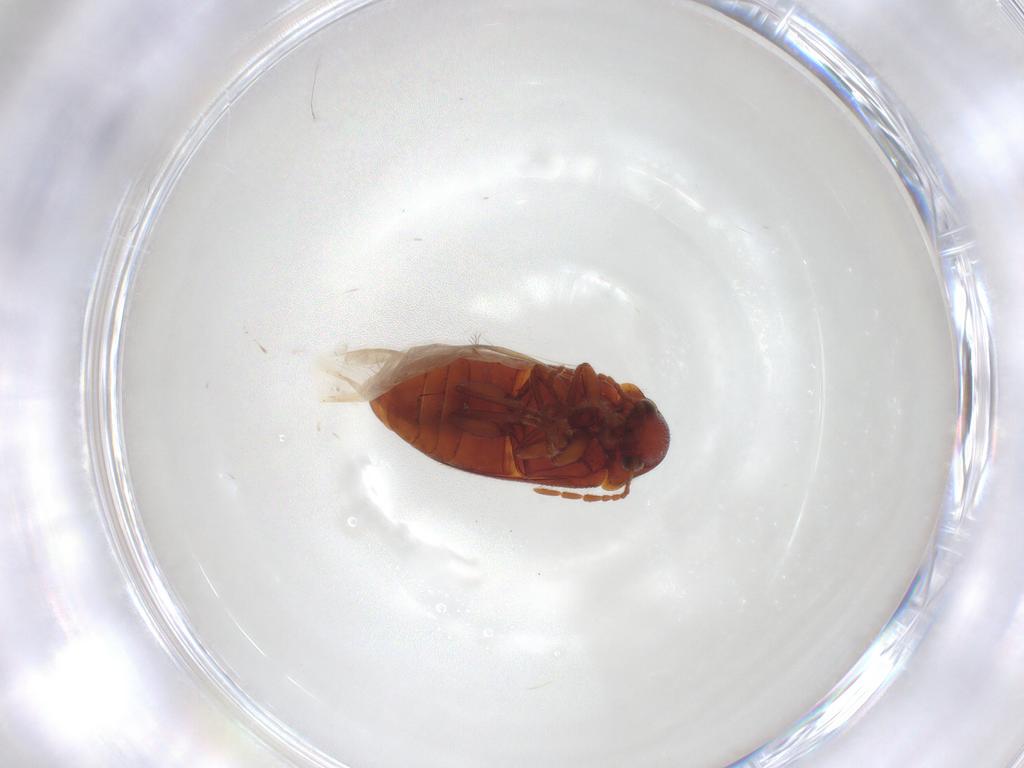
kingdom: Animalia
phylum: Arthropoda
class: Insecta
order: Coleoptera
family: Ptinidae
